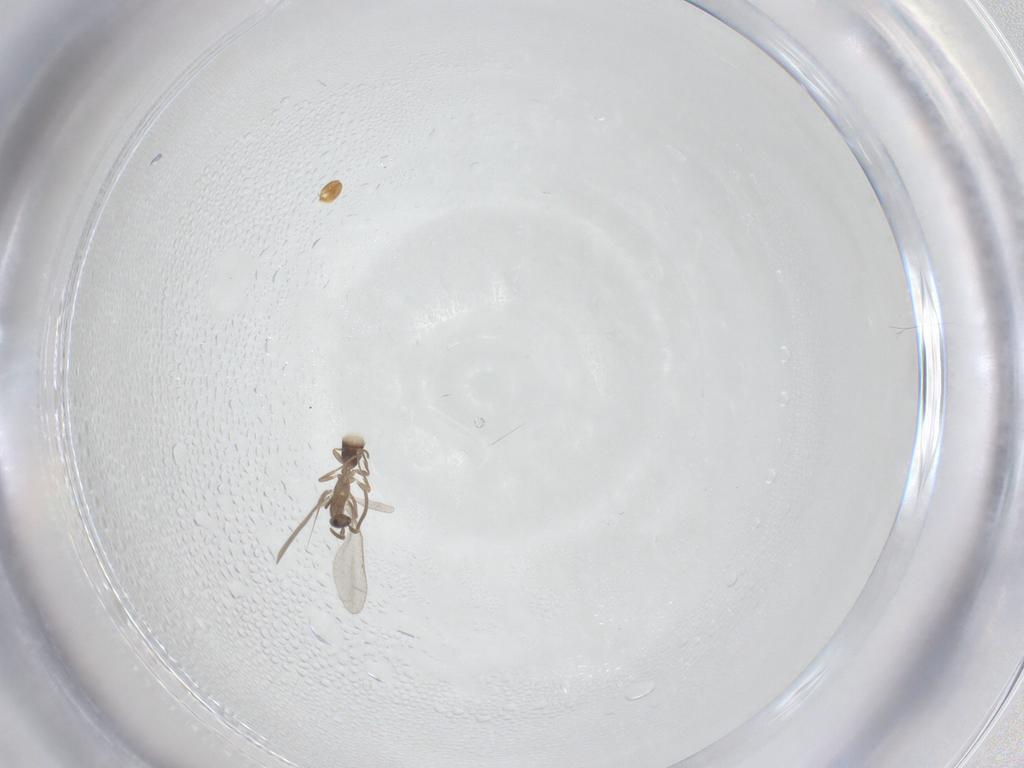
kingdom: Animalia
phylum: Arthropoda
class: Insecta
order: Hymenoptera
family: Formicidae
